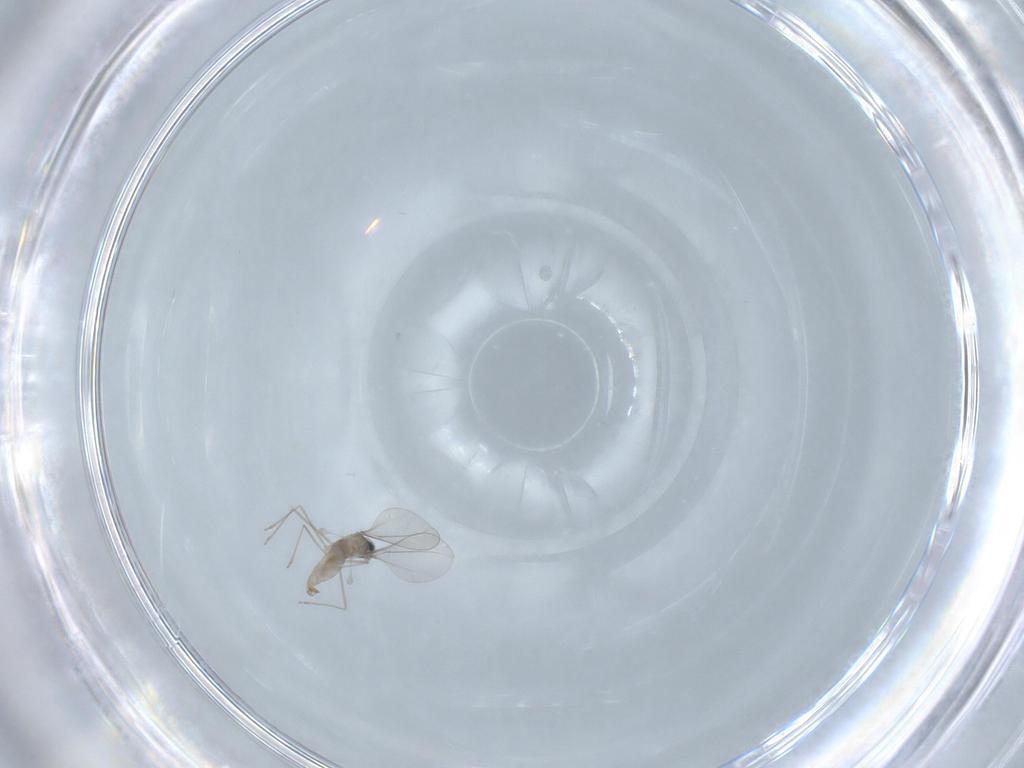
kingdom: Animalia
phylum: Arthropoda
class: Insecta
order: Diptera
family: Cecidomyiidae
